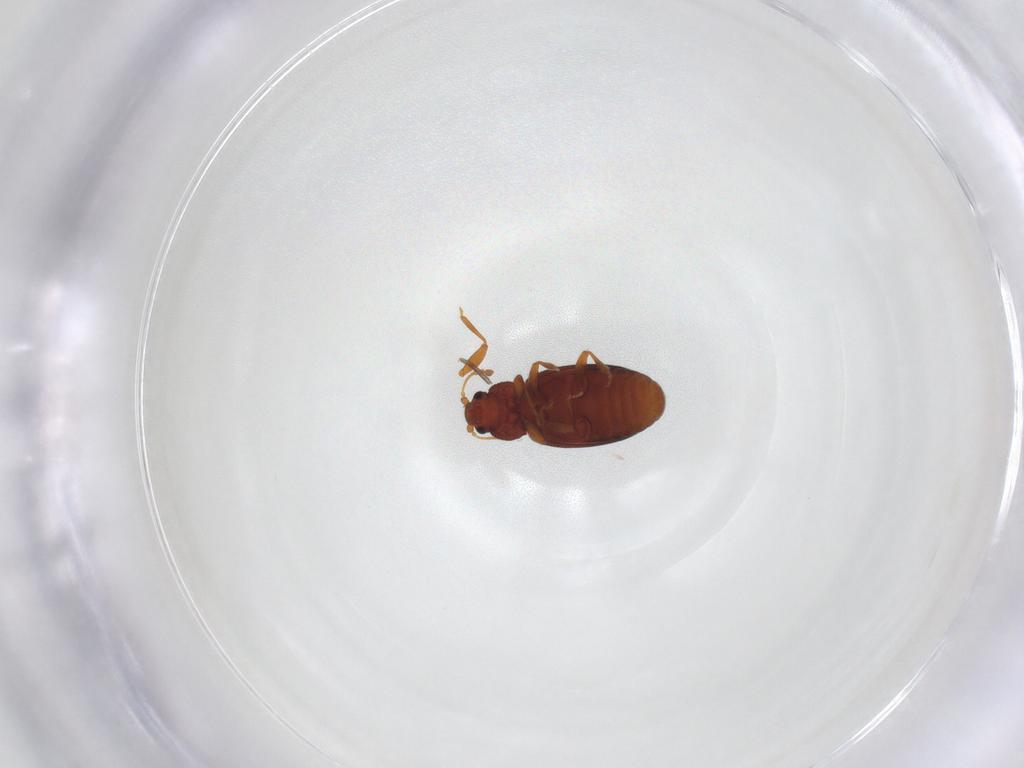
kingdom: Animalia
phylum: Arthropoda
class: Insecta
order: Coleoptera
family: Latridiidae
